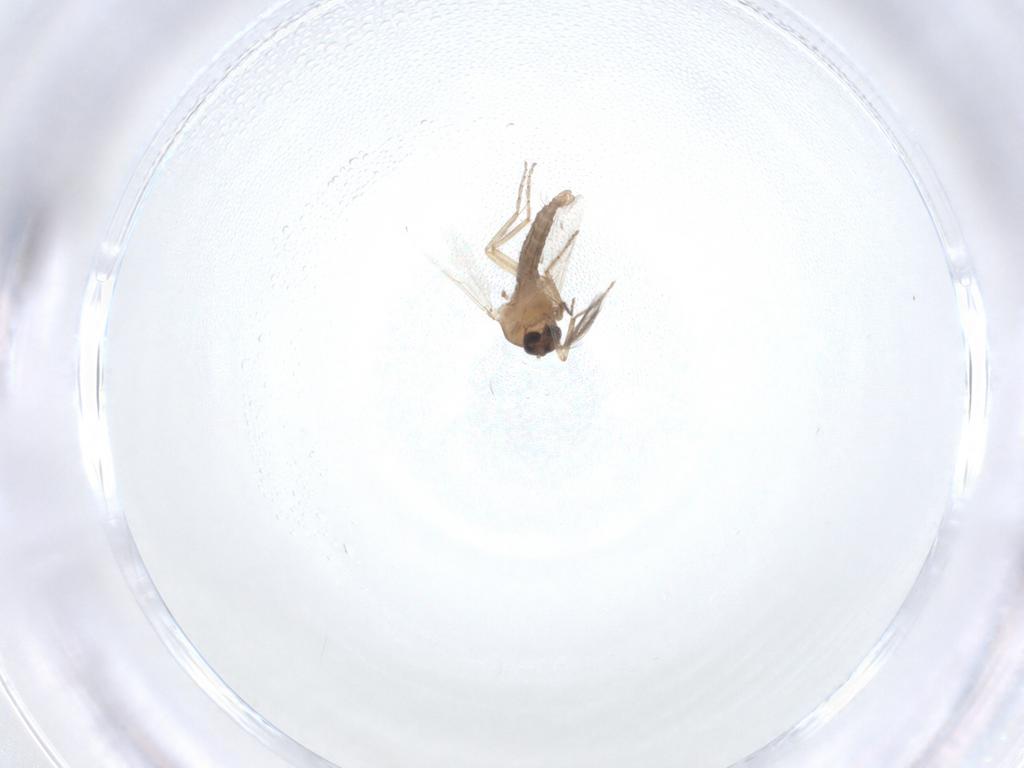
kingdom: Animalia
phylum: Arthropoda
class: Insecta
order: Diptera
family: Ceratopogonidae
